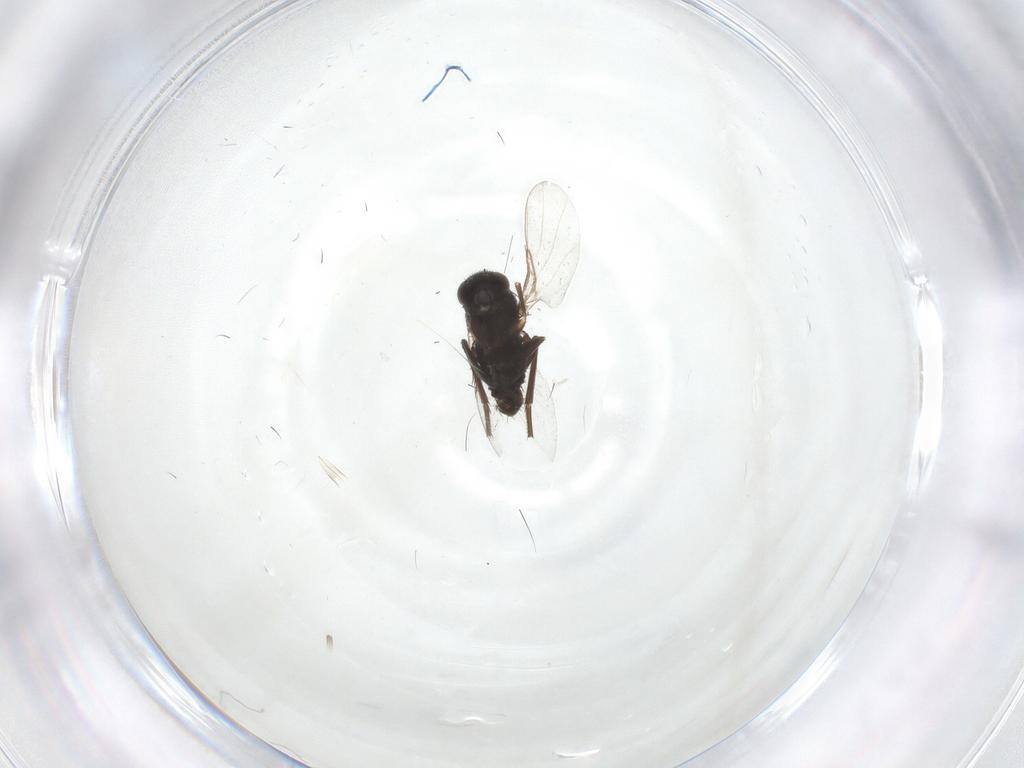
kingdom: Animalia
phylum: Arthropoda
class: Insecta
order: Diptera
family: Phoridae
